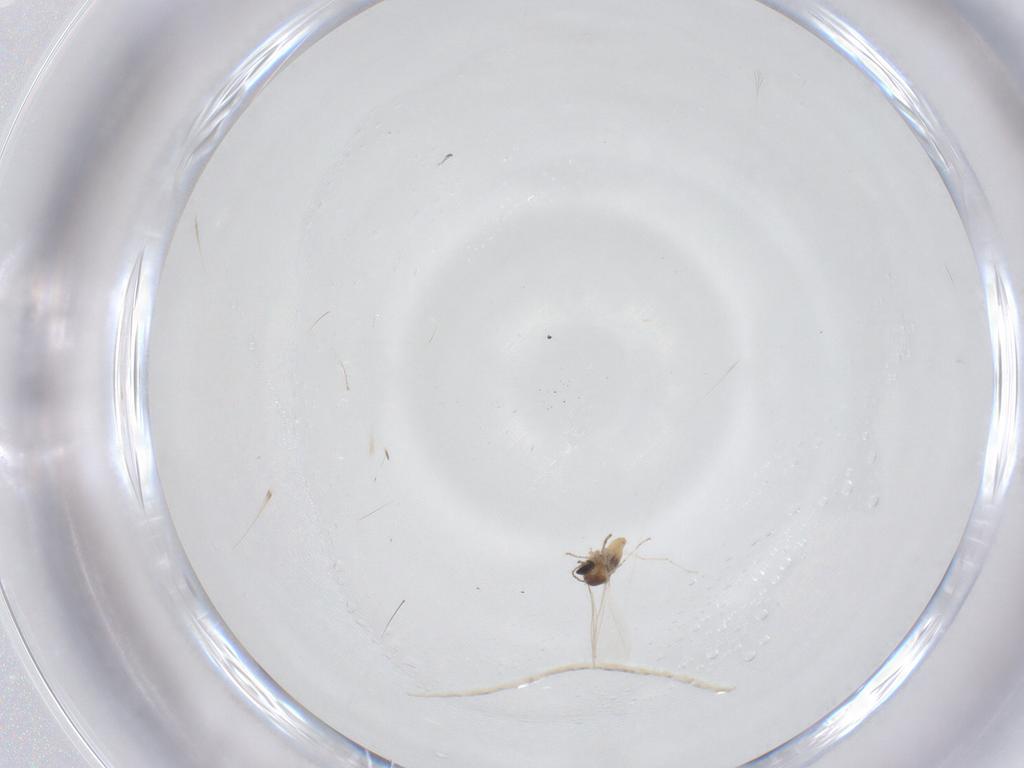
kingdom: Animalia
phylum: Arthropoda
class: Insecta
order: Diptera
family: Cecidomyiidae
